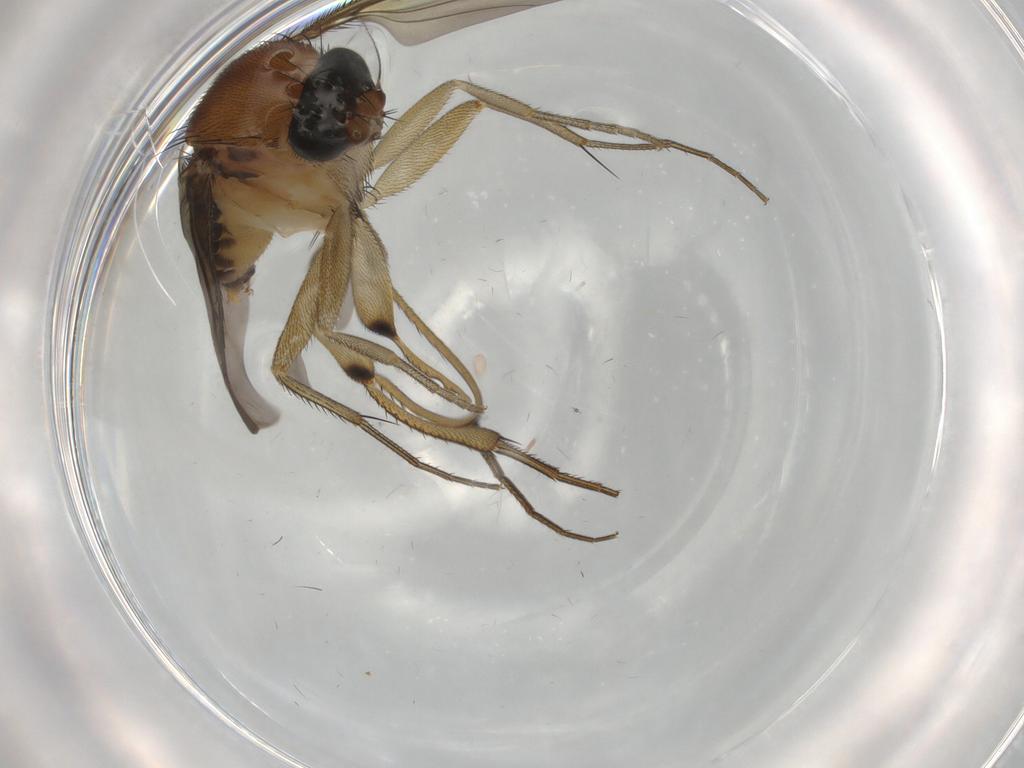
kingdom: Animalia
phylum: Arthropoda
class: Insecta
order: Diptera
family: Phoridae
